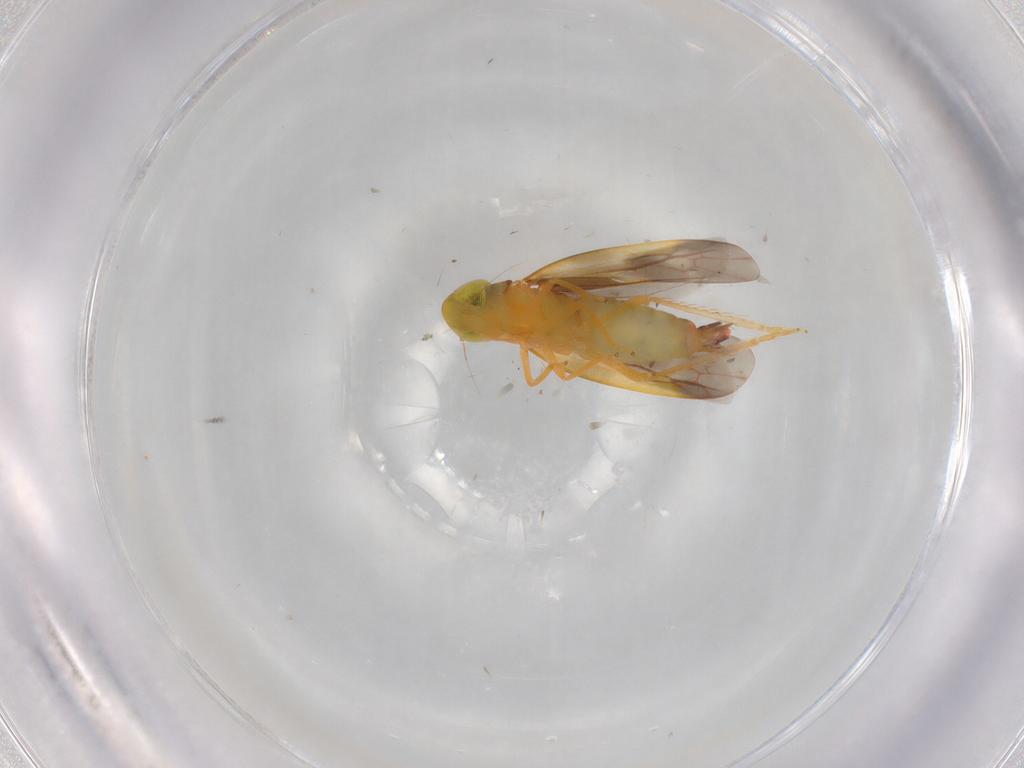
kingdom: Animalia
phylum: Arthropoda
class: Insecta
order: Hemiptera
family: Cicadellidae
